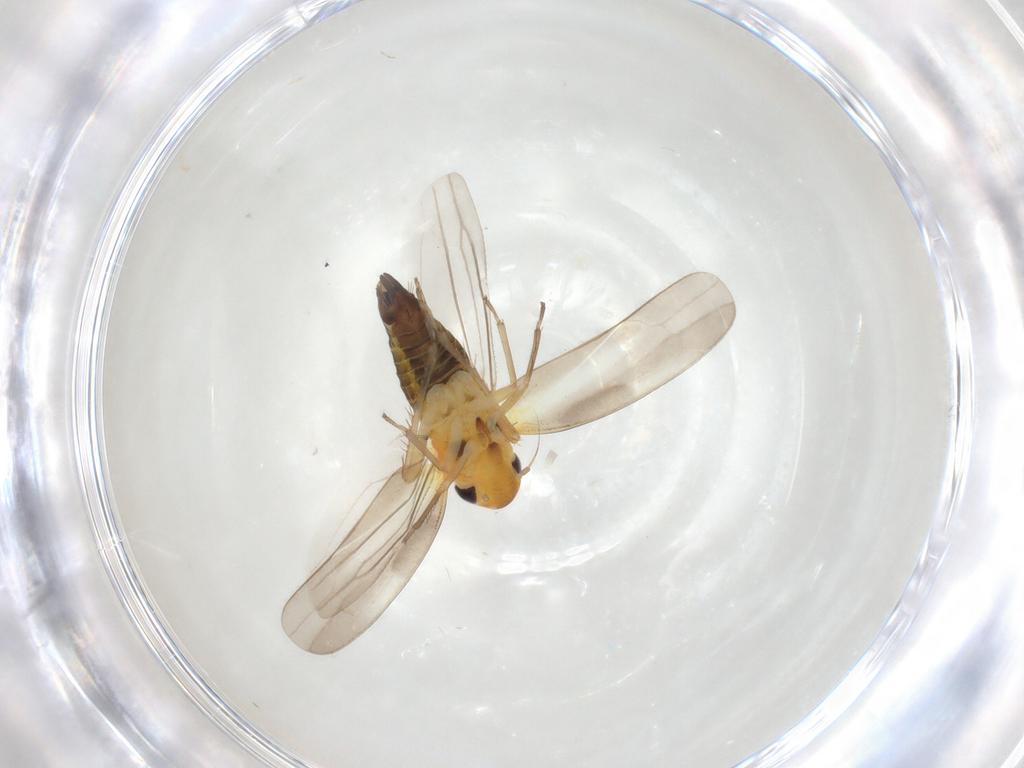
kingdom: Animalia
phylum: Arthropoda
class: Insecta
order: Hemiptera
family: Cicadellidae
